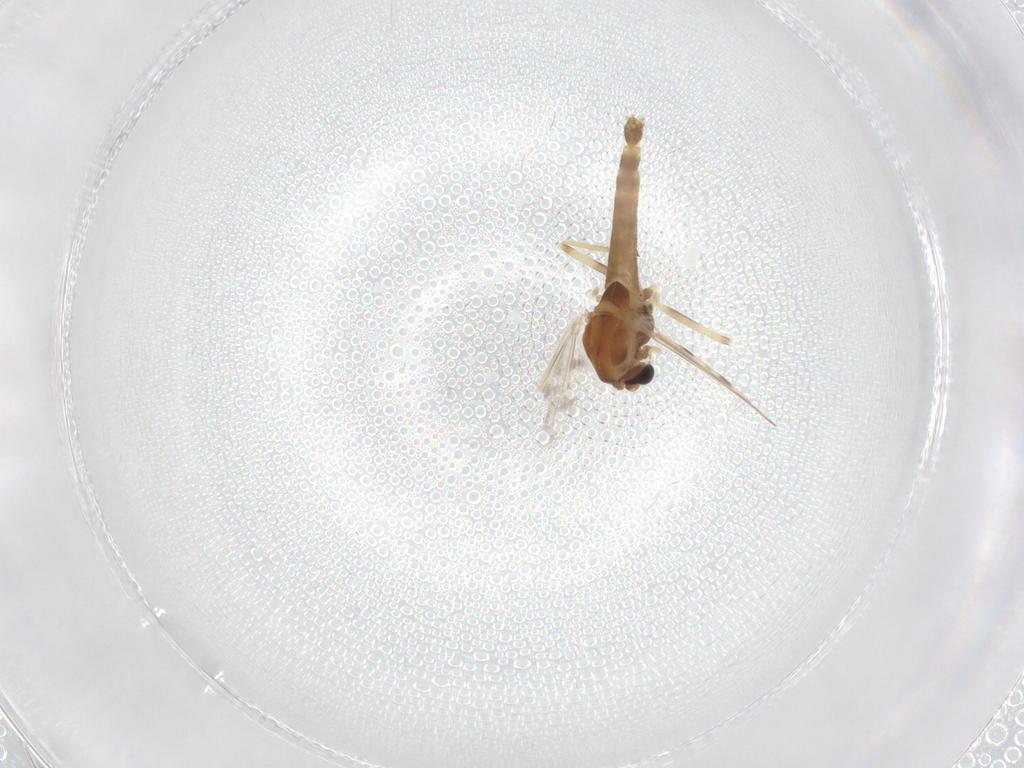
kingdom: Animalia
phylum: Arthropoda
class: Insecta
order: Diptera
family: Chironomidae
